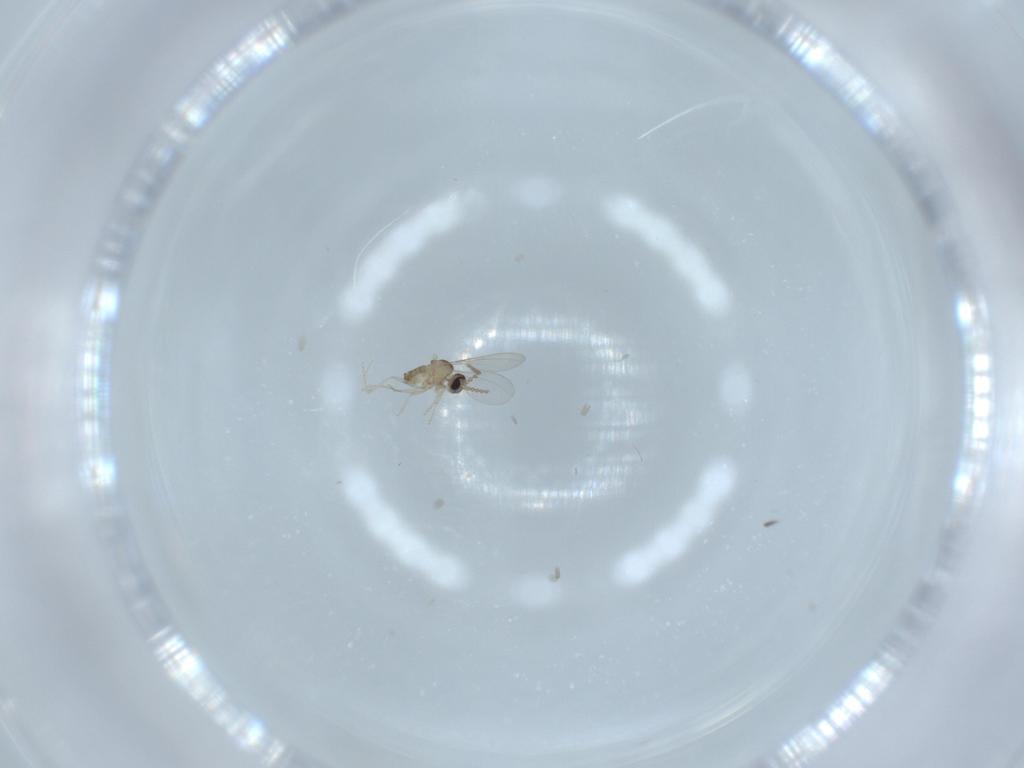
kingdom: Animalia
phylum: Arthropoda
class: Insecta
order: Diptera
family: Cecidomyiidae
